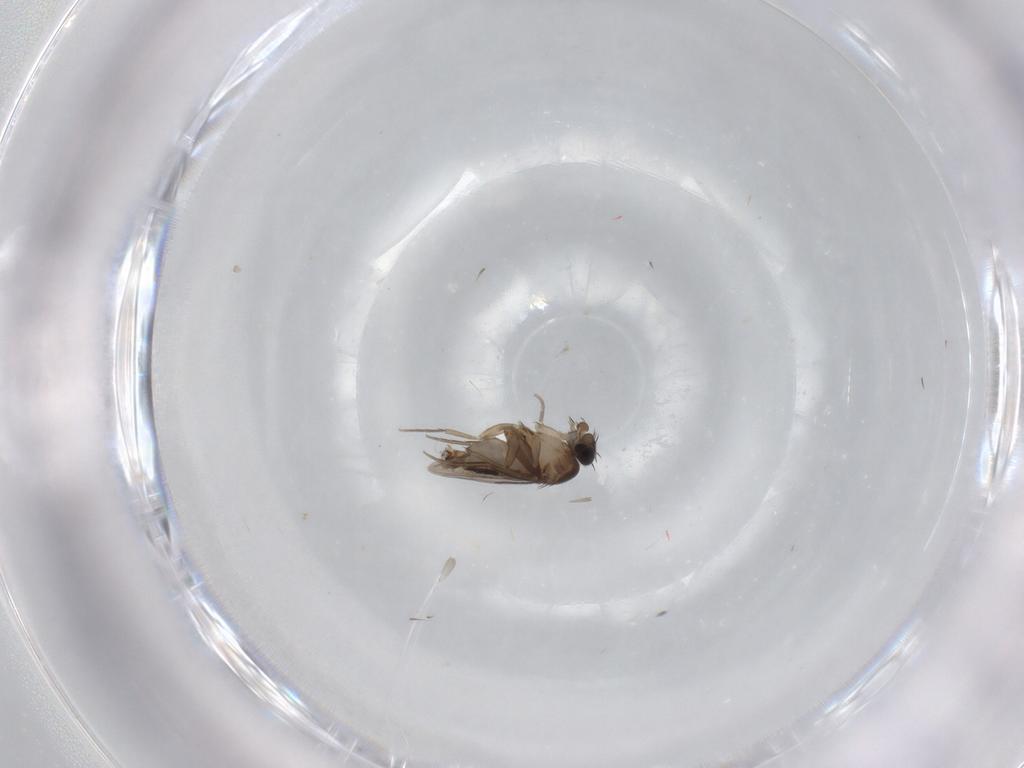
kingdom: Animalia
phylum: Arthropoda
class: Insecta
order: Diptera
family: Phoridae
